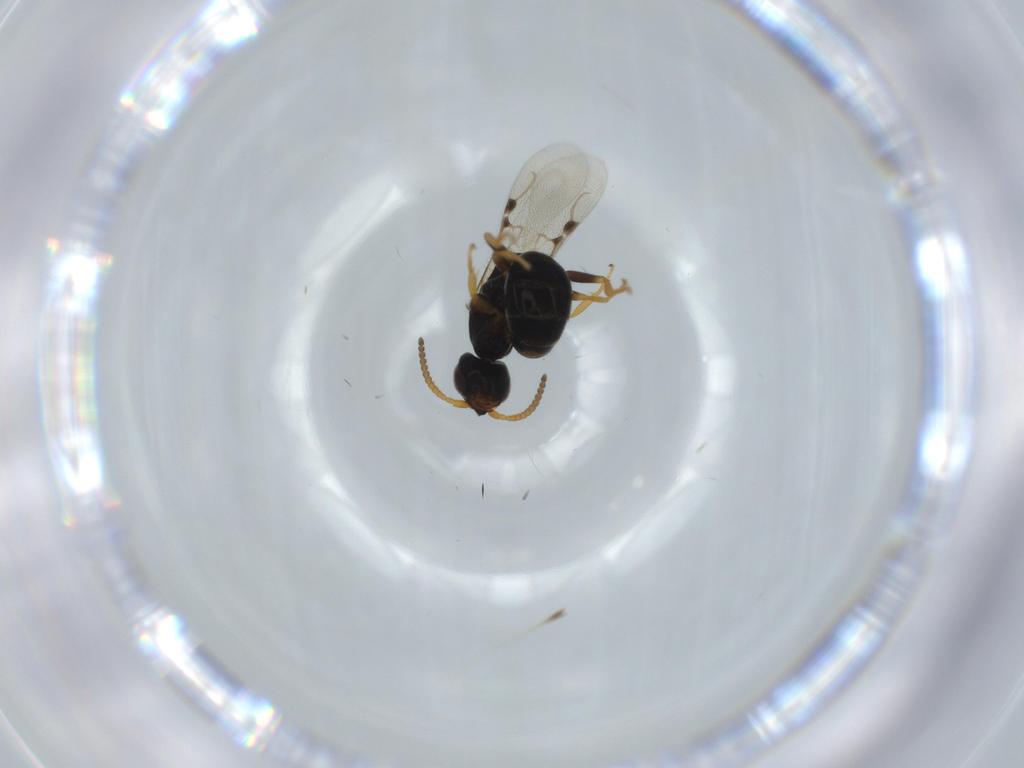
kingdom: Animalia
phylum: Arthropoda
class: Insecta
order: Hymenoptera
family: Bethylidae
